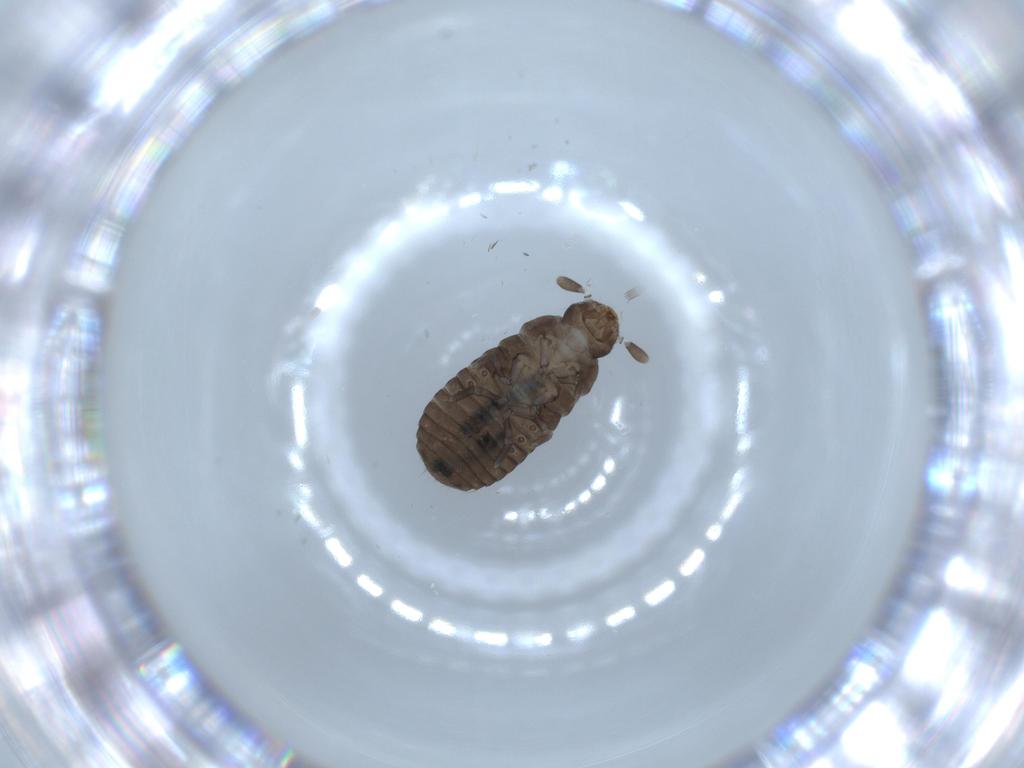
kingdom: Animalia
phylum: Arthropoda
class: Insecta
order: Coleoptera
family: Tenebrionidae
